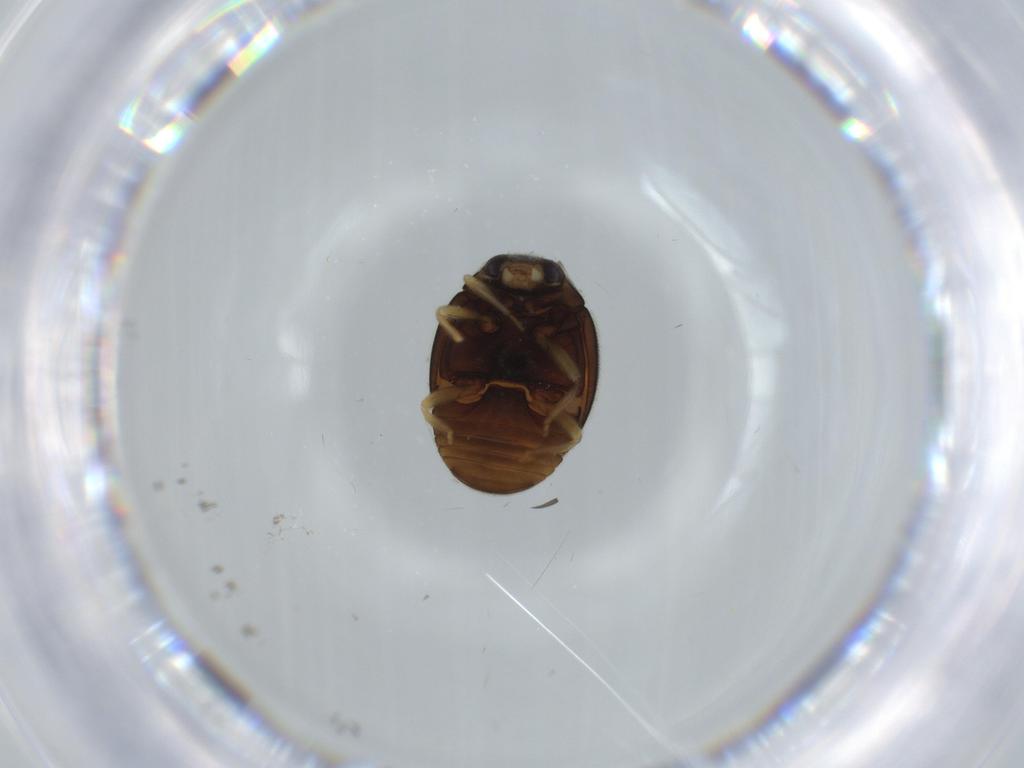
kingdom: Animalia
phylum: Arthropoda
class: Insecta
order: Coleoptera
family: Coccinellidae
